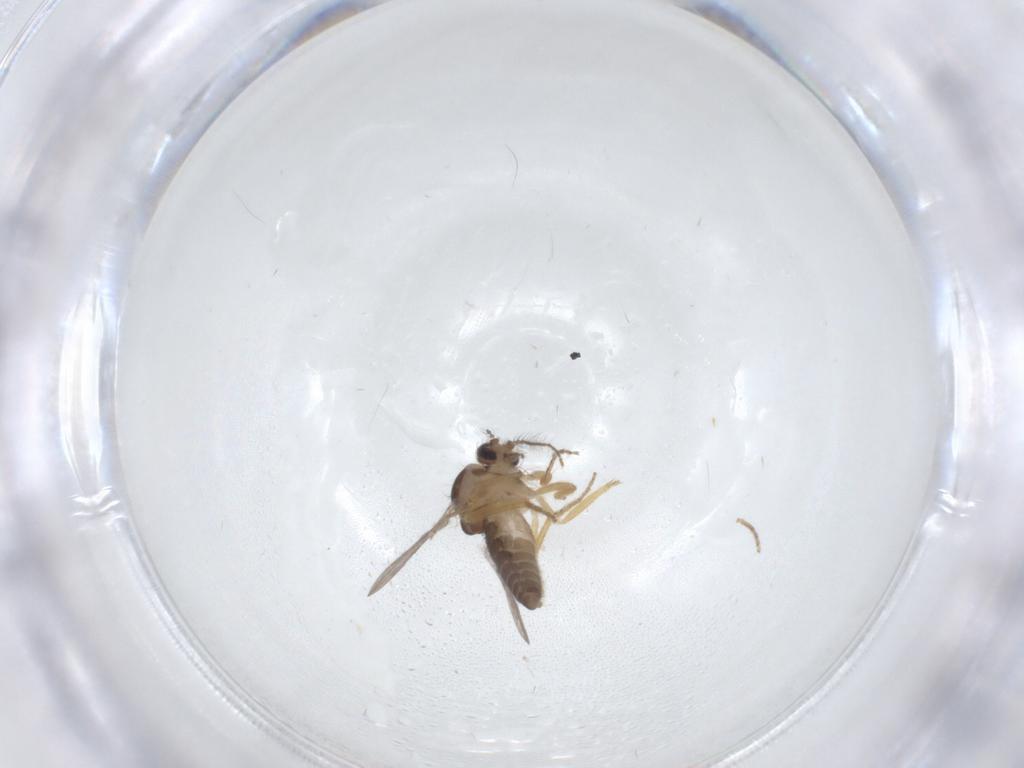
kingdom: Animalia
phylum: Arthropoda
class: Insecta
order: Diptera
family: Ceratopogonidae
